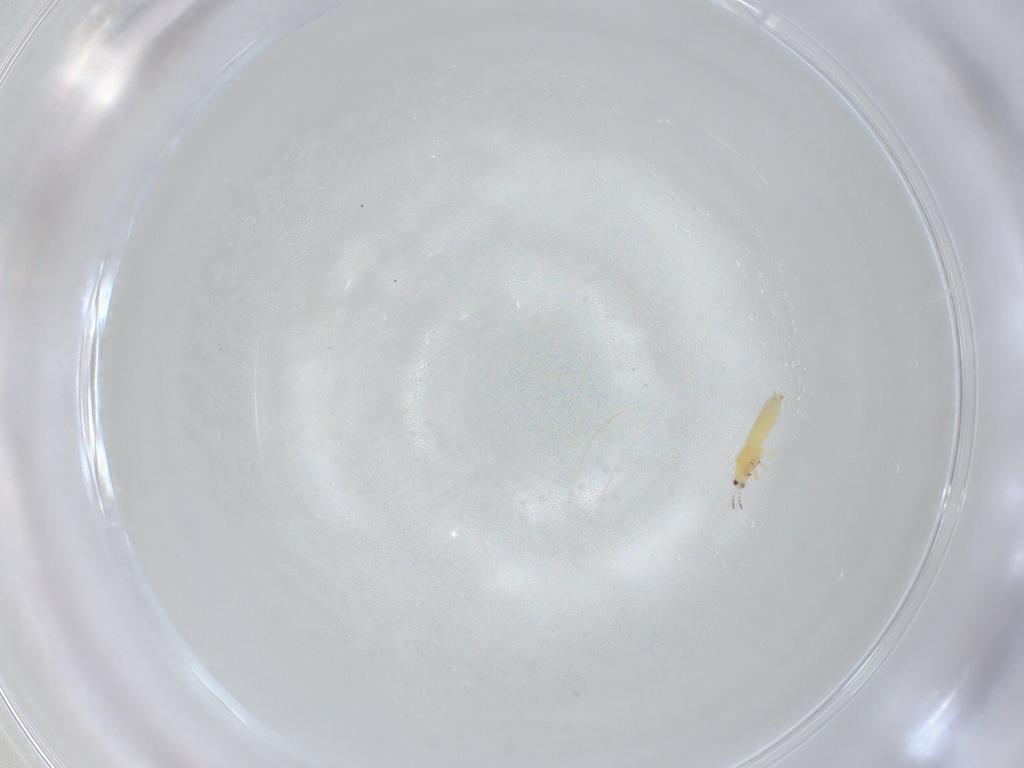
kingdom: Animalia
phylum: Arthropoda
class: Insecta
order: Thysanoptera
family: Thripidae
